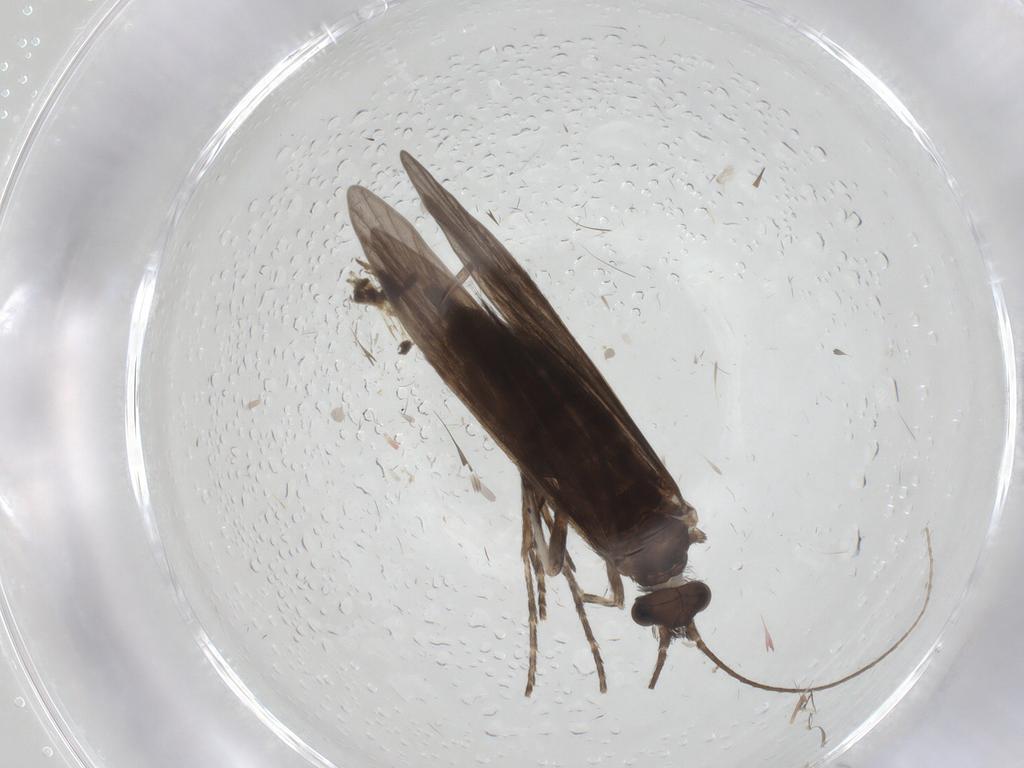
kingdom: Animalia
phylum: Arthropoda
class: Insecta
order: Trichoptera
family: Xiphocentronidae
